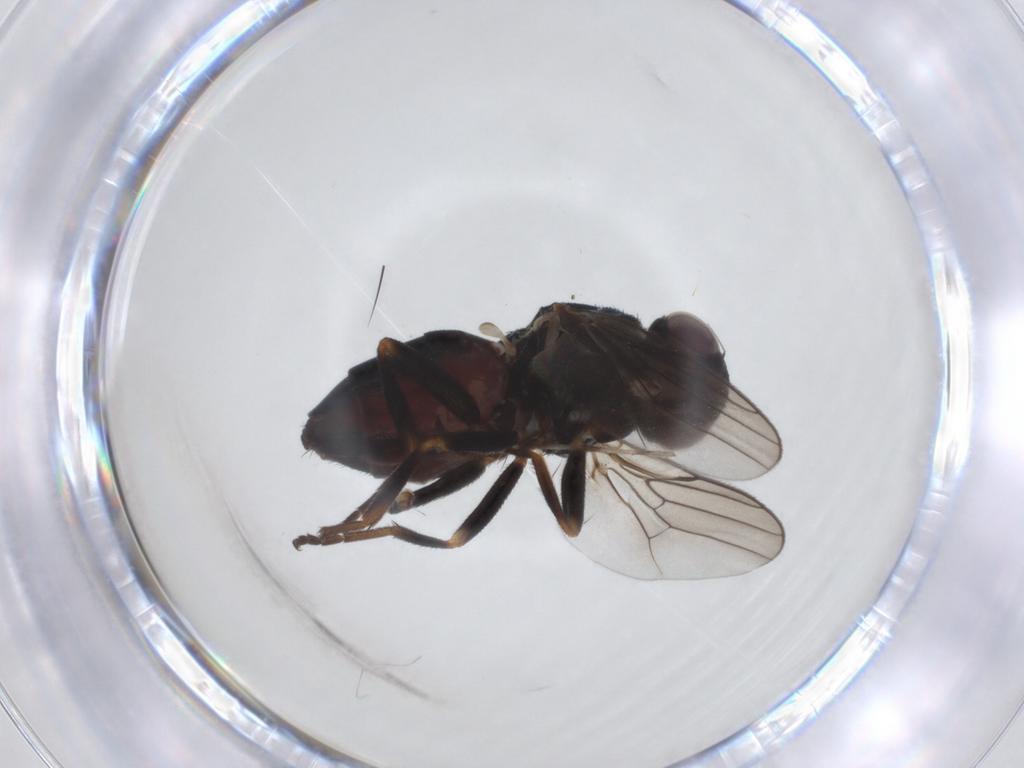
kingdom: Animalia
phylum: Arthropoda
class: Insecta
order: Diptera
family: Chloropidae
